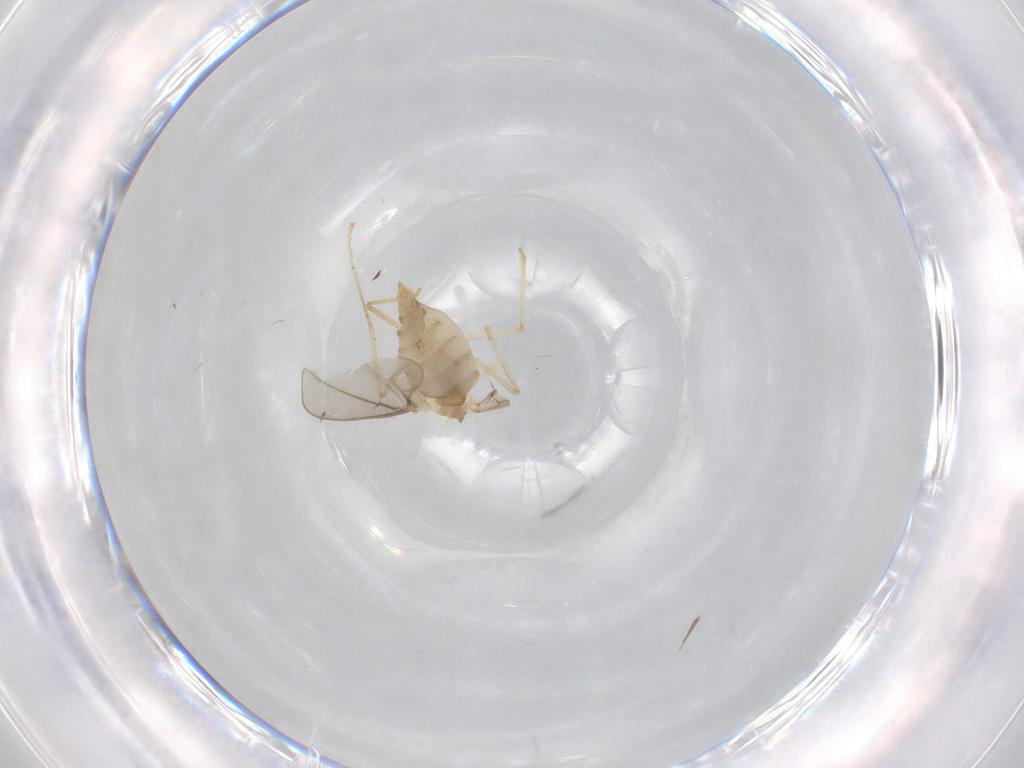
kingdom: Animalia
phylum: Arthropoda
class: Insecta
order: Diptera
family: Cecidomyiidae
